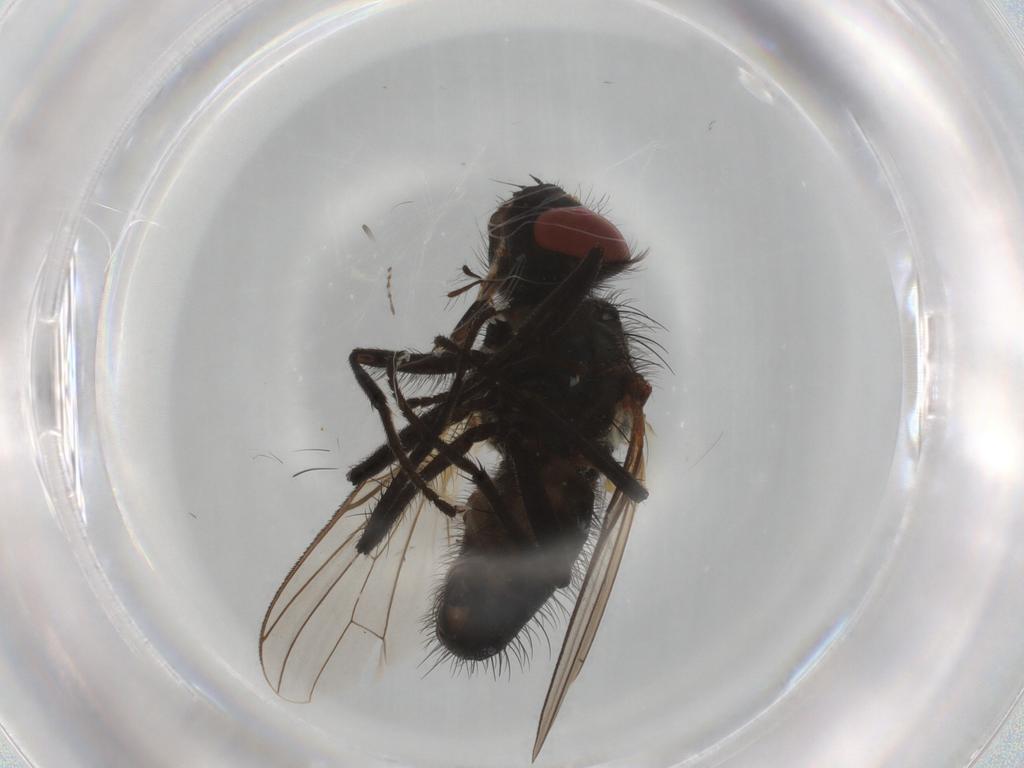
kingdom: Animalia
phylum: Arthropoda
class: Insecta
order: Diptera
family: Anthomyiidae
